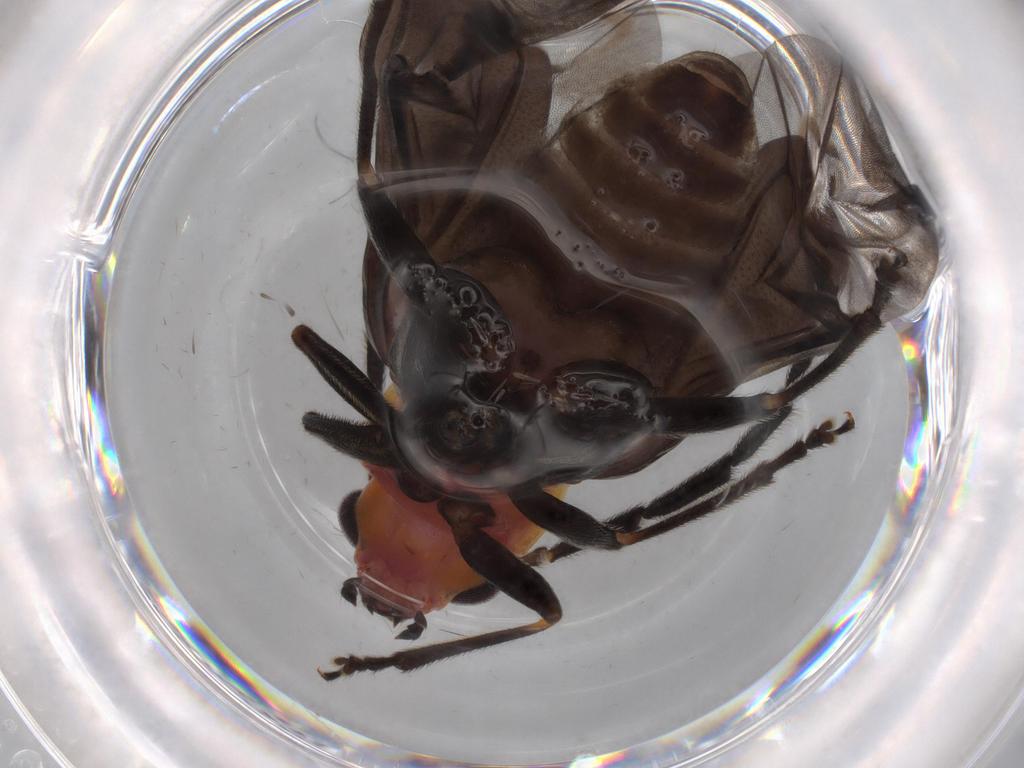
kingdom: Animalia
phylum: Arthropoda
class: Insecta
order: Coleoptera
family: Chrysomelidae
